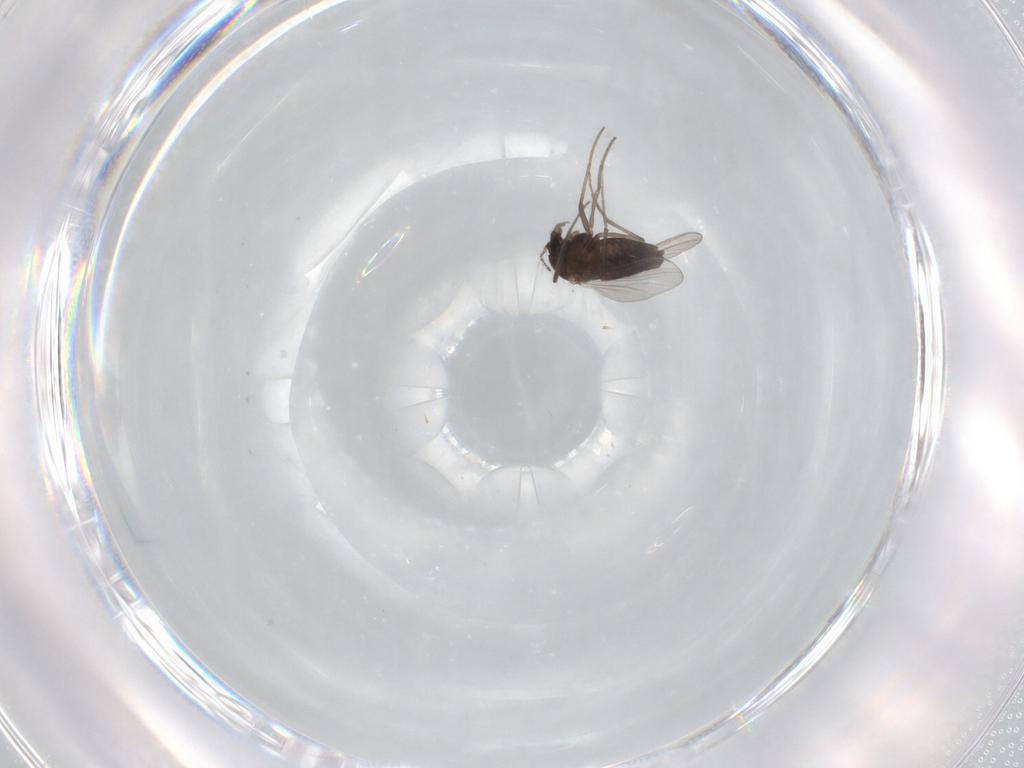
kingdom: Animalia
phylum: Arthropoda
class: Insecta
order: Diptera
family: Chironomidae
